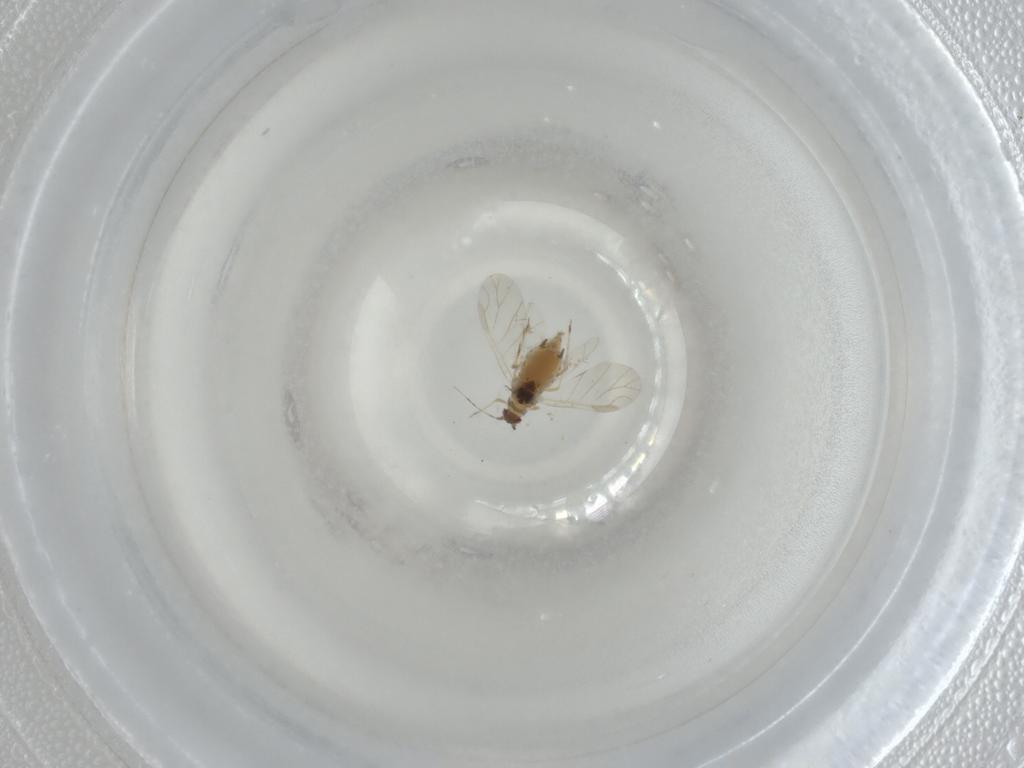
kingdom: Animalia
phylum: Arthropoda
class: Insecta
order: Hemiptera
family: Aphididae
